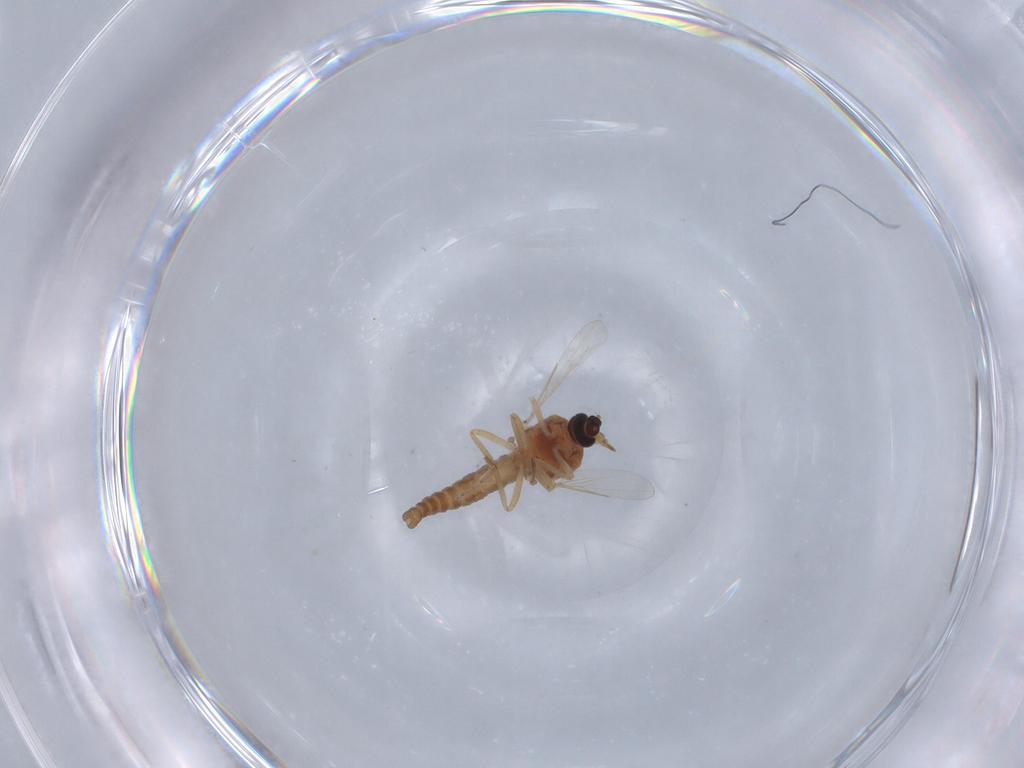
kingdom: Animalia
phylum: Arthropoda
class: Insecta
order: Diptera
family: Ceratopogonidae
